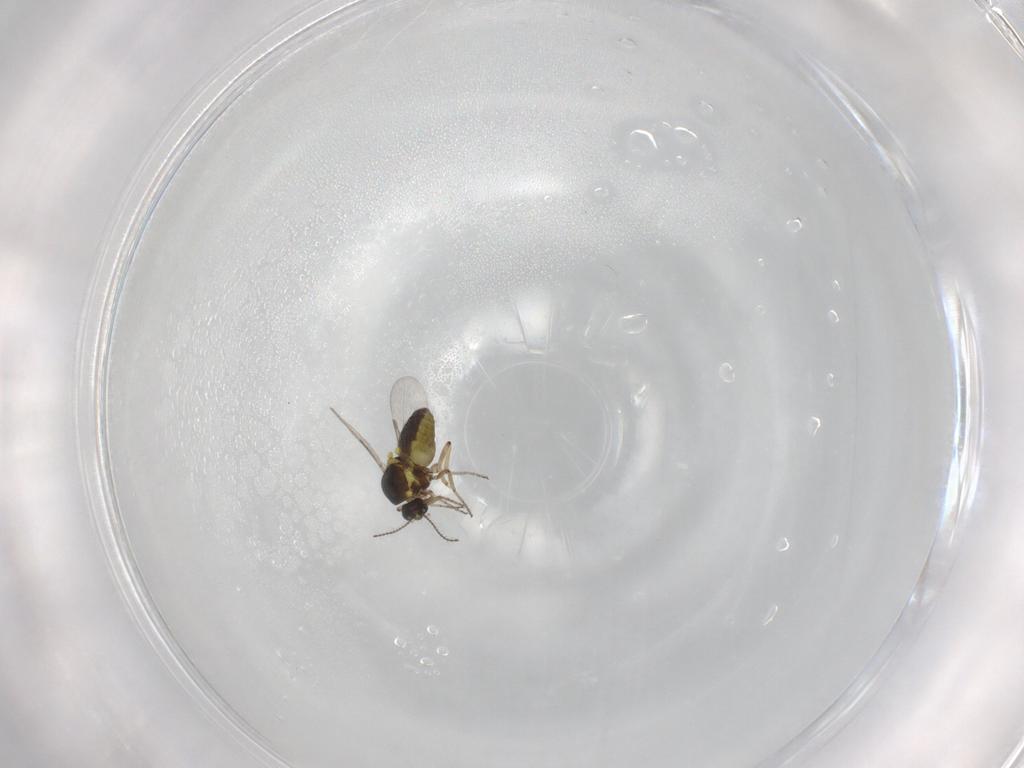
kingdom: Animalia
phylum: Arthropoda
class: Insecta
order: Diptera
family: Ceratopogonidae
